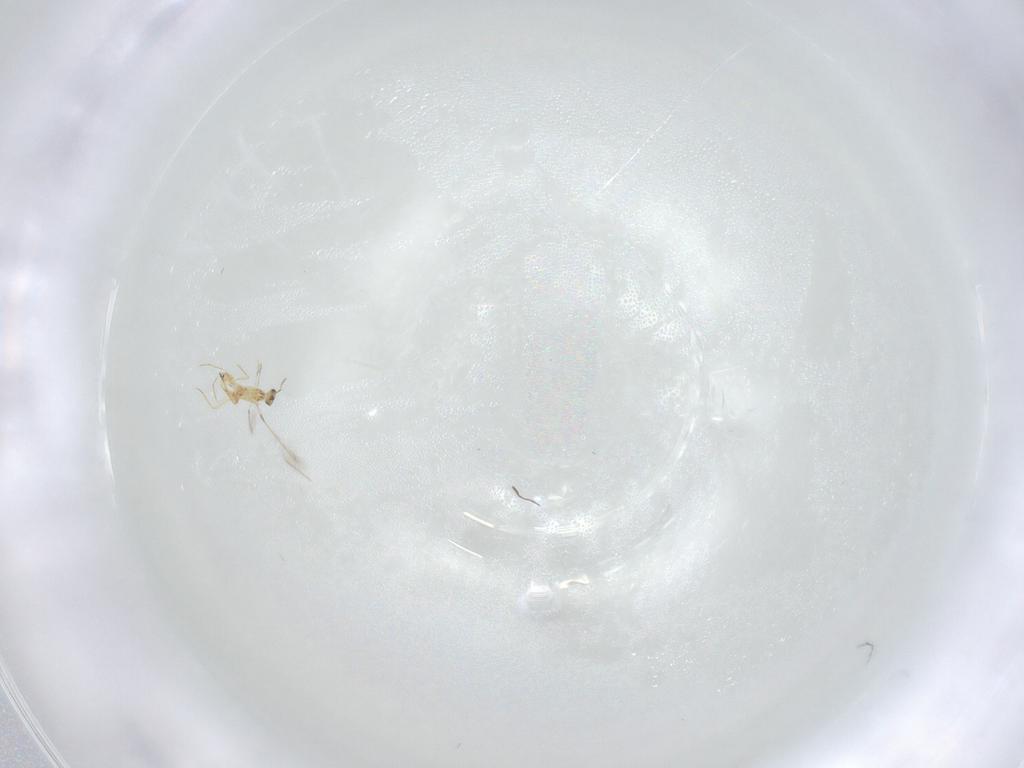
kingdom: Animalia
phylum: Arthropoda
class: Insecta
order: Hymenoptera
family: Mymaridae
